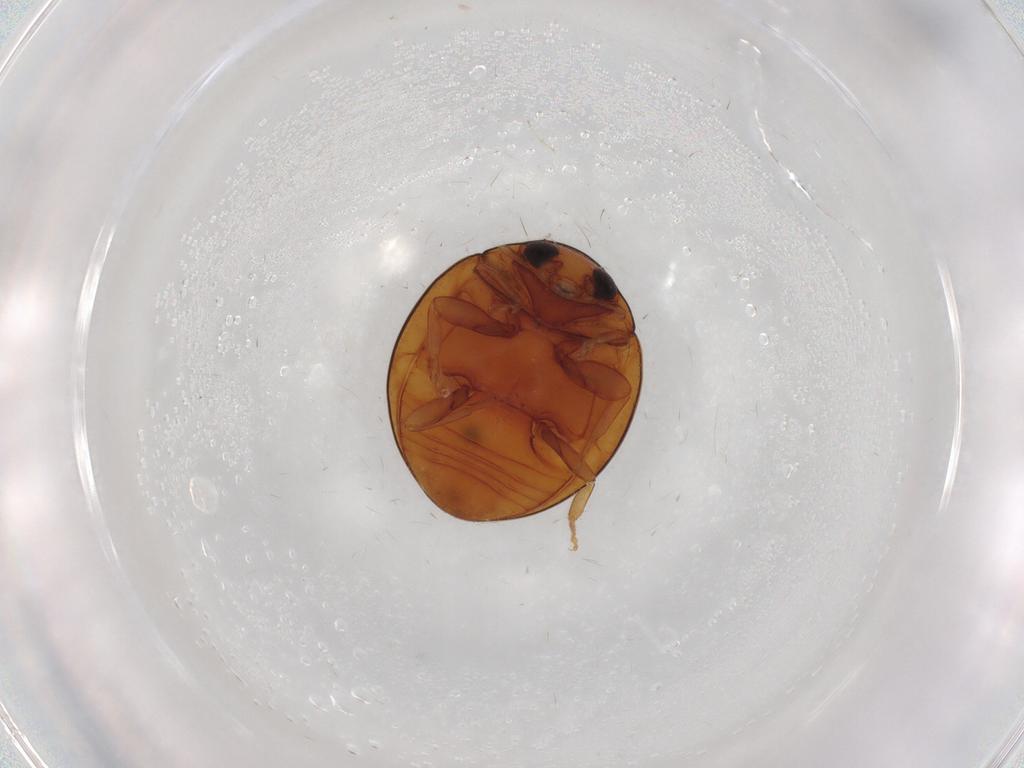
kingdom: Animalia
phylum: Arthropoda
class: Insecta
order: Coleoptera
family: Coccinellidae
